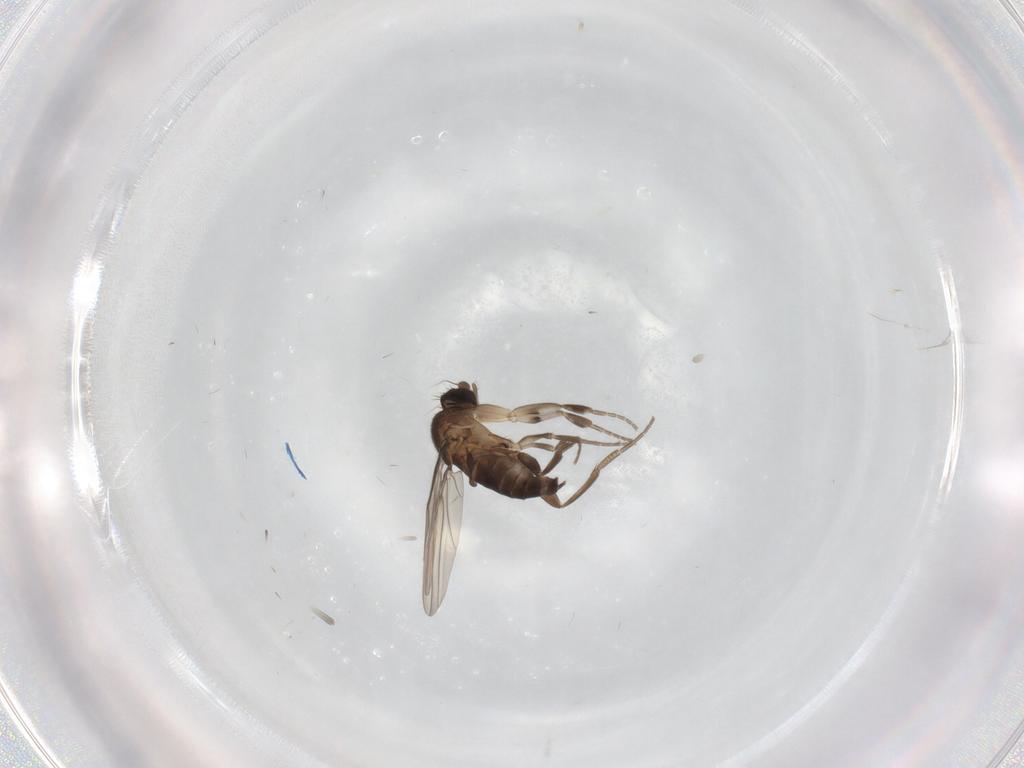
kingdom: Animalia
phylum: Arthropoda
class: Insecta
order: Diptera
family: Phoridae
